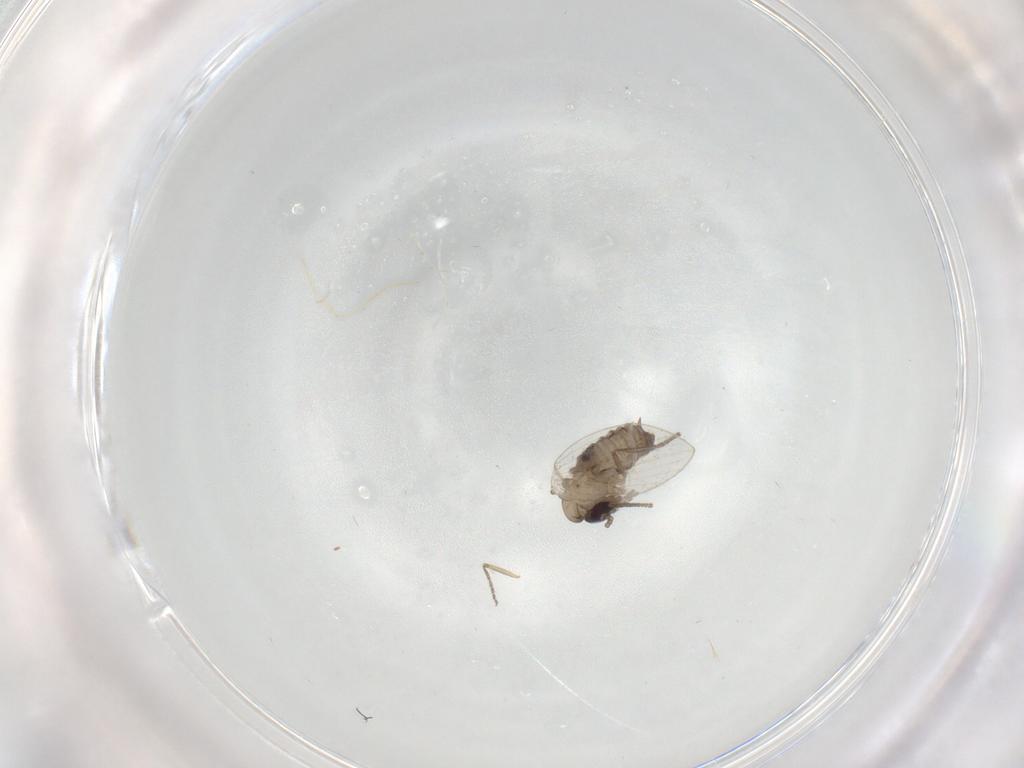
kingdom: Animalia
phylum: Arthropoda
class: Insecta
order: Diptera
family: Psychodidae
